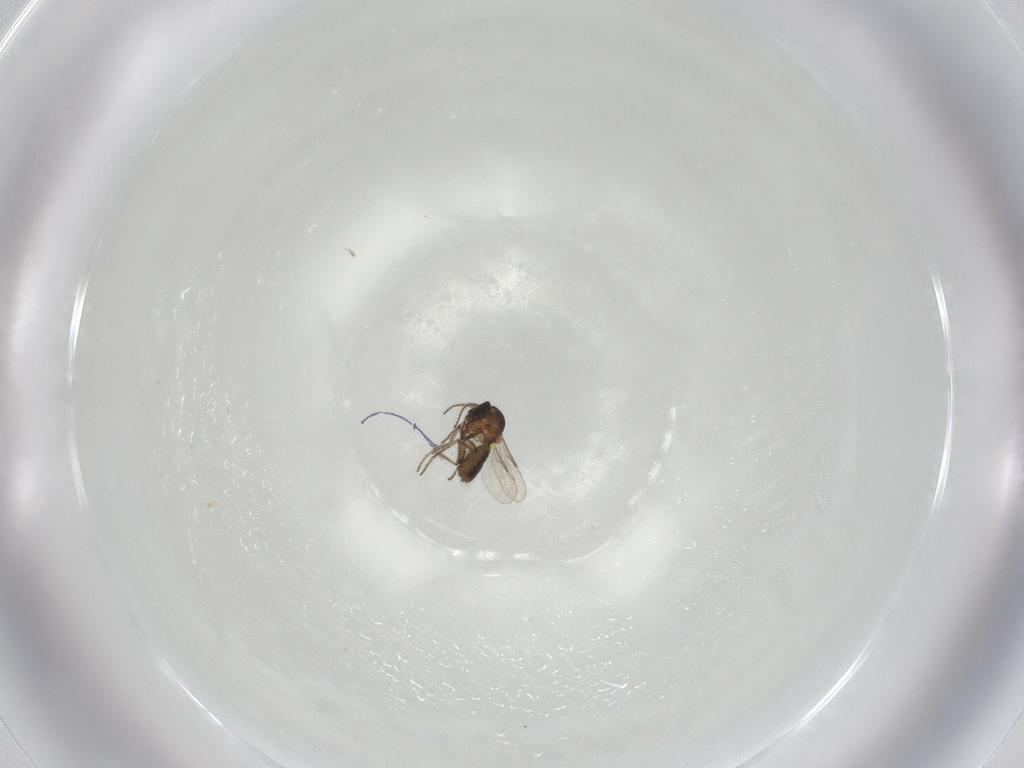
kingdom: Animalia
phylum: Arthropoda
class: Insecta
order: Diptera
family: Ceratopogonidae
